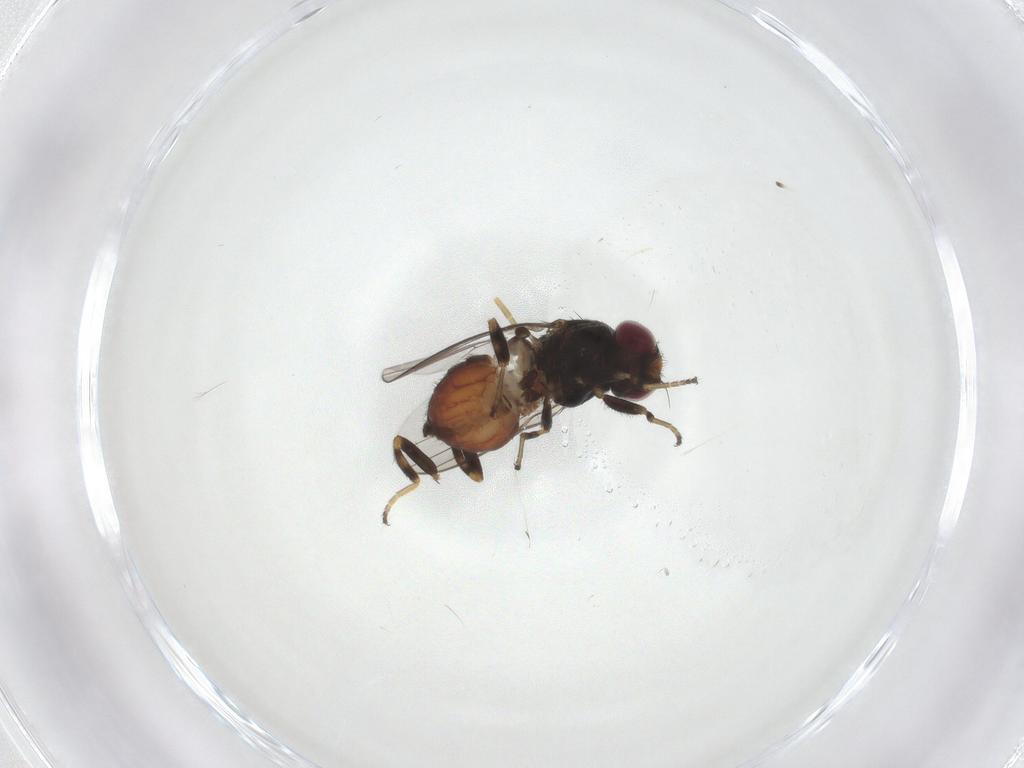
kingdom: Animalia
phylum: Arthropoda
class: Insecta
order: Diptera
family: Chloropidae
